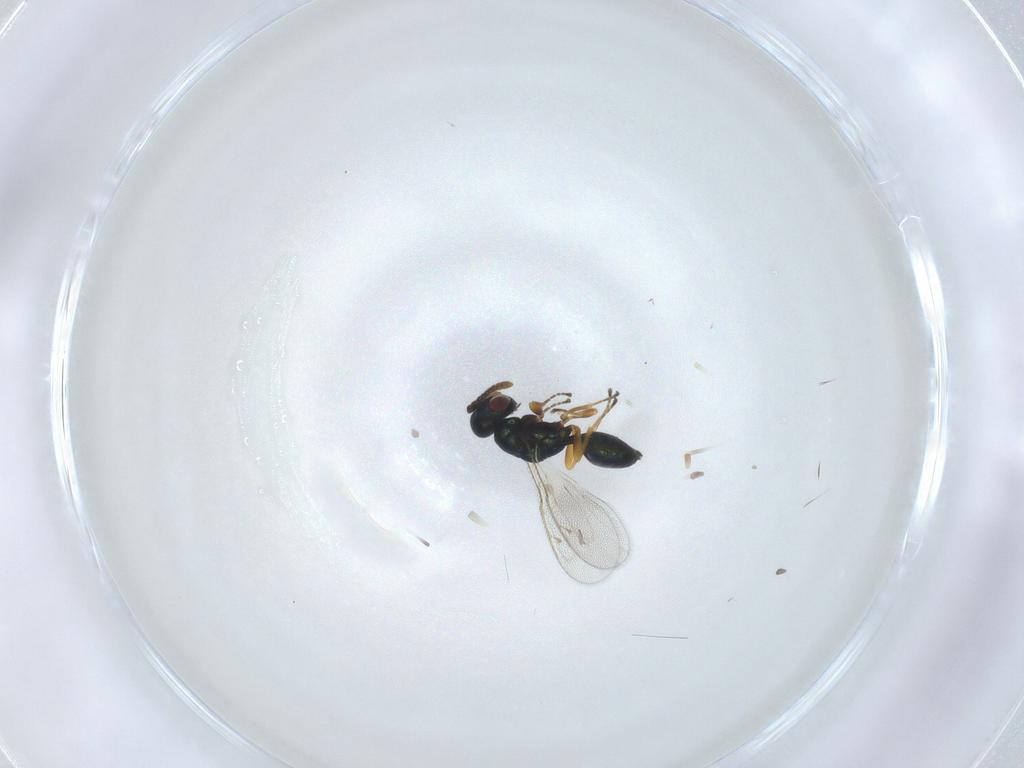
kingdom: Animalia
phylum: Arthropoda
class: Insecta
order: Hymenoptera
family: Pteromalidae
